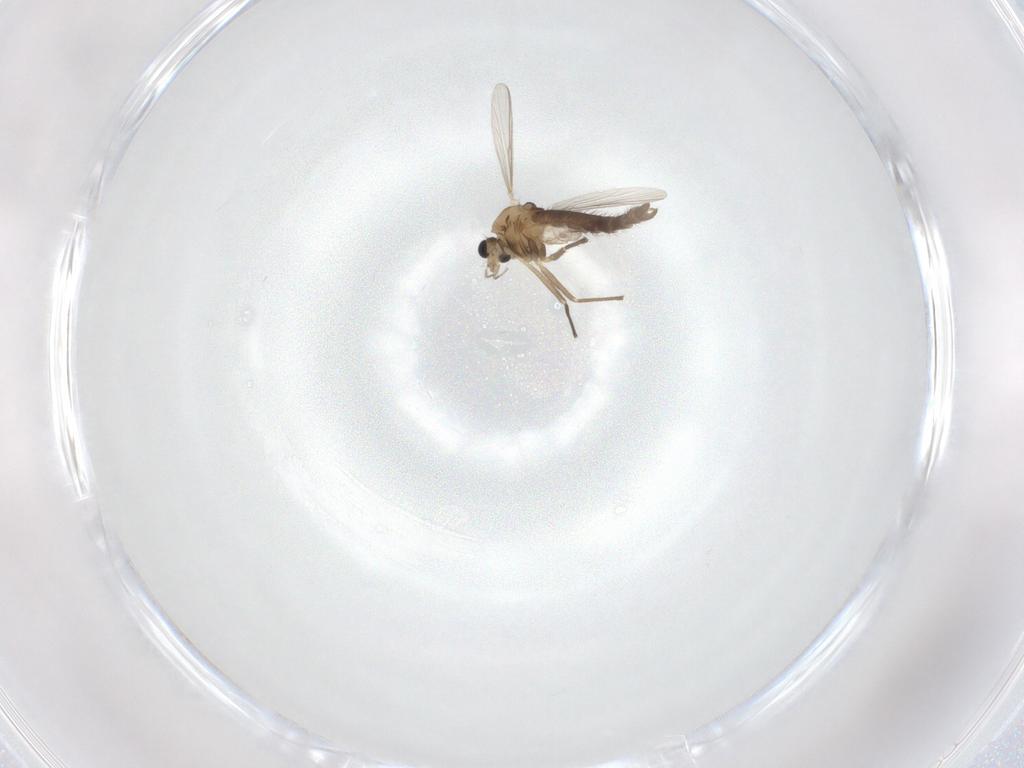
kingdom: Animalia
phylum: Arthropoda
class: Insecta
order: Diptera
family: Chironomidae
